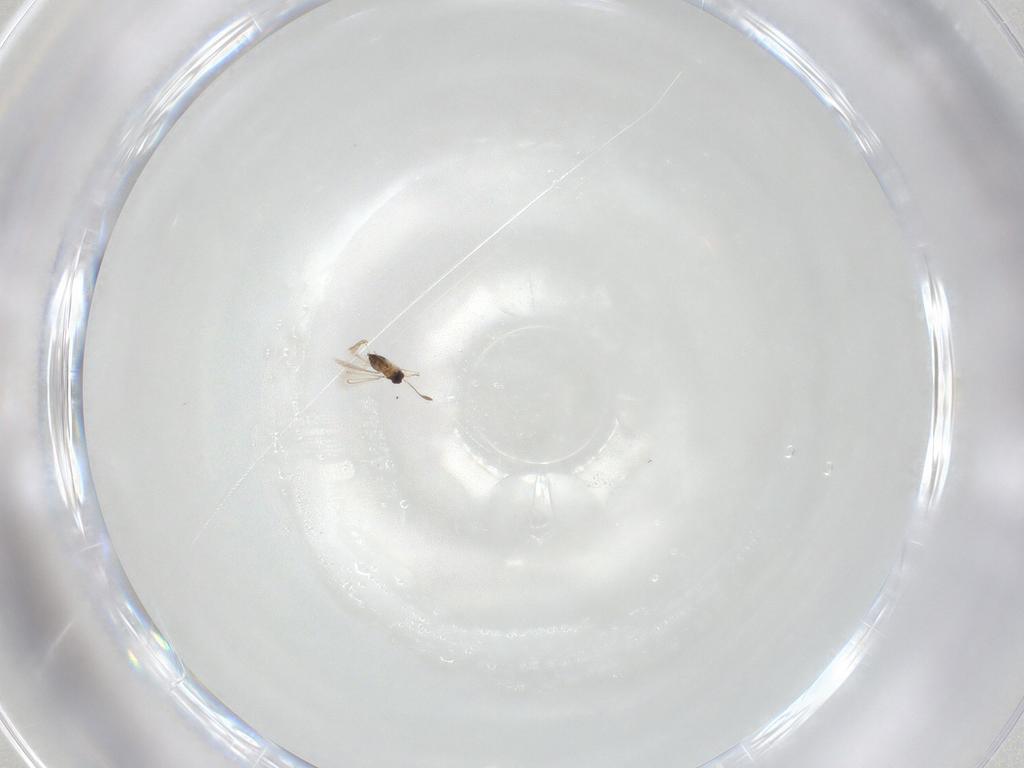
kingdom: Animalia
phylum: Arthropoda
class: Insecta
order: Hymenoptera
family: Mymaridae
